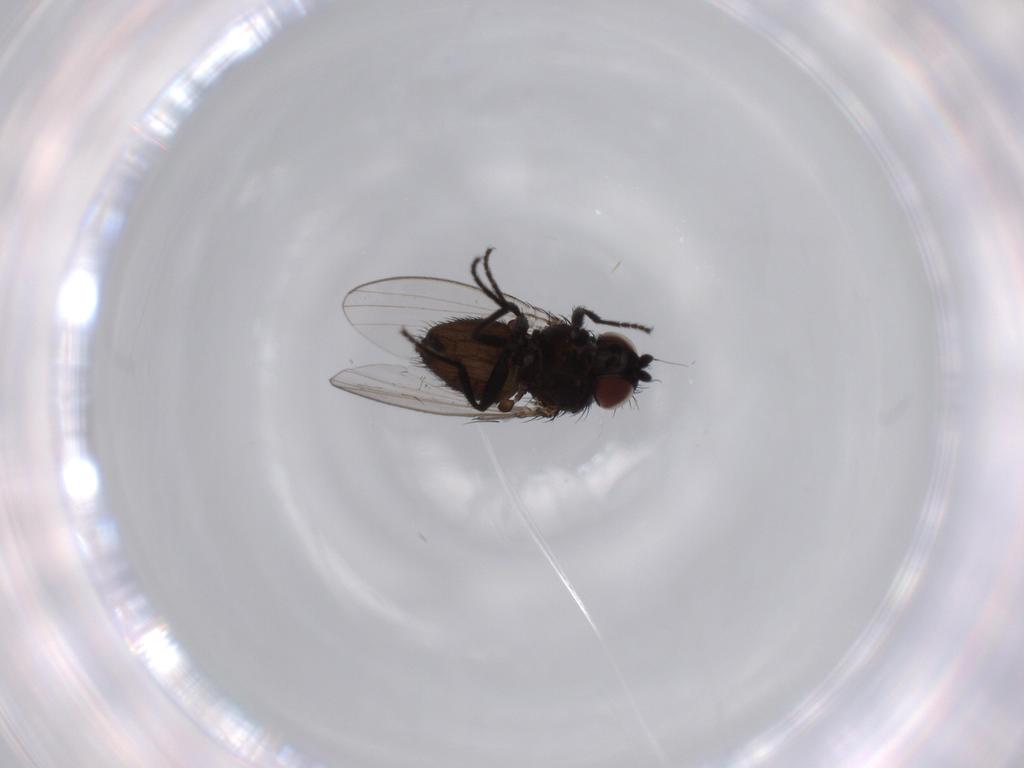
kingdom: Animalia
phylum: Arthropoda
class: Insecta
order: Diptera
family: Milichiidae
